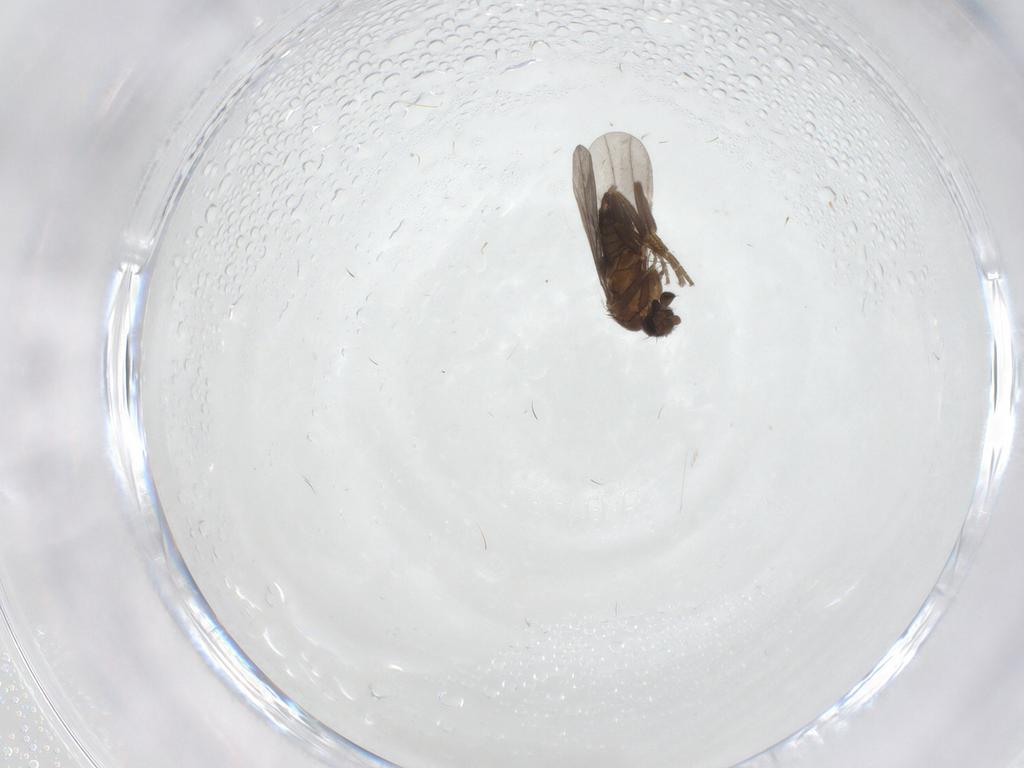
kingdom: Animalia
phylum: Arthropoda
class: Insecta
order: Diptera
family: Phoridae
